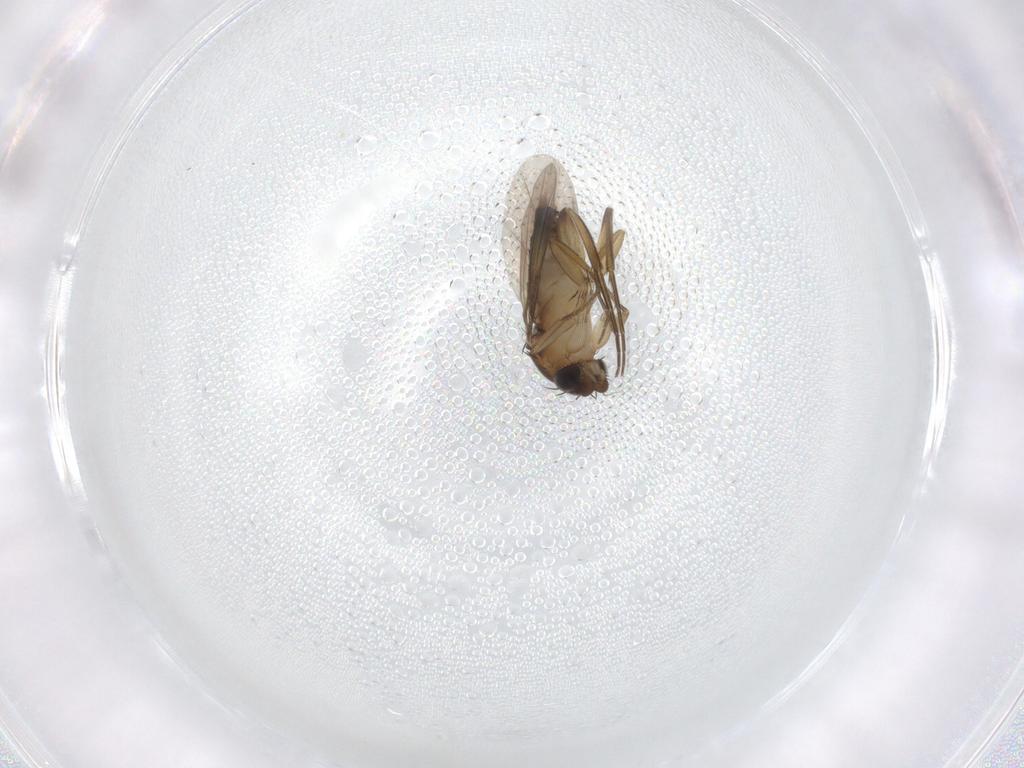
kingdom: Animalia
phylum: Arthropoda
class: Insecta
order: Diptera
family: Phoridae
